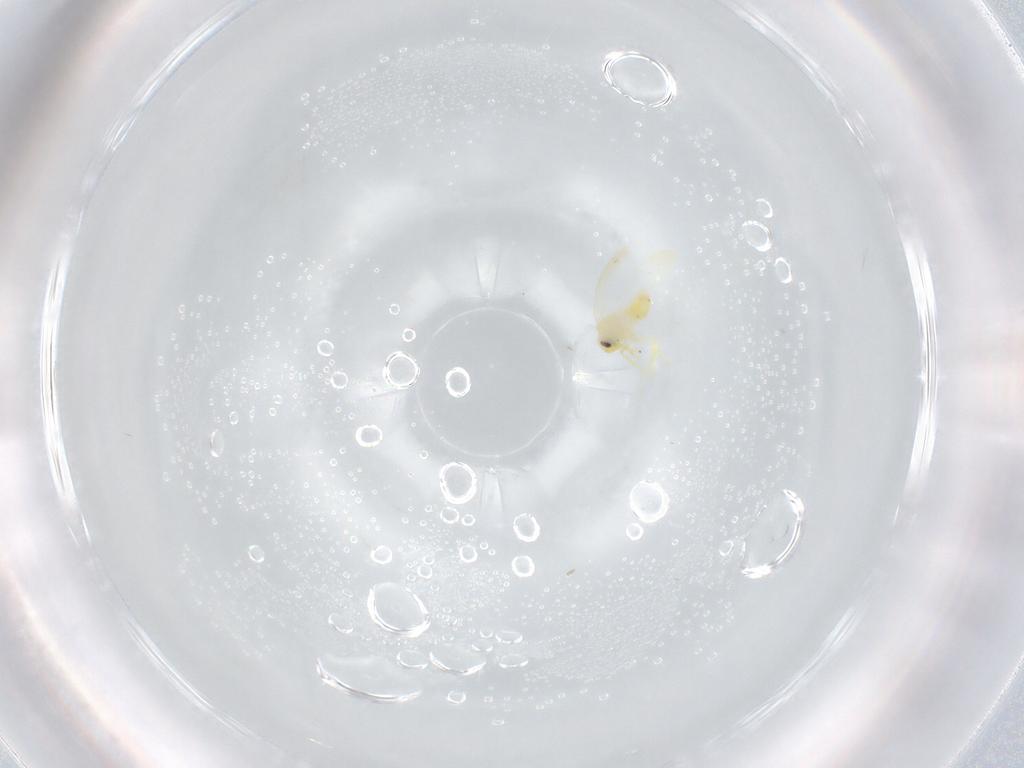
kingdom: Animalia
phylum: Arthropoda
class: Insecta
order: Hemiptera
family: Aleyrodidae
